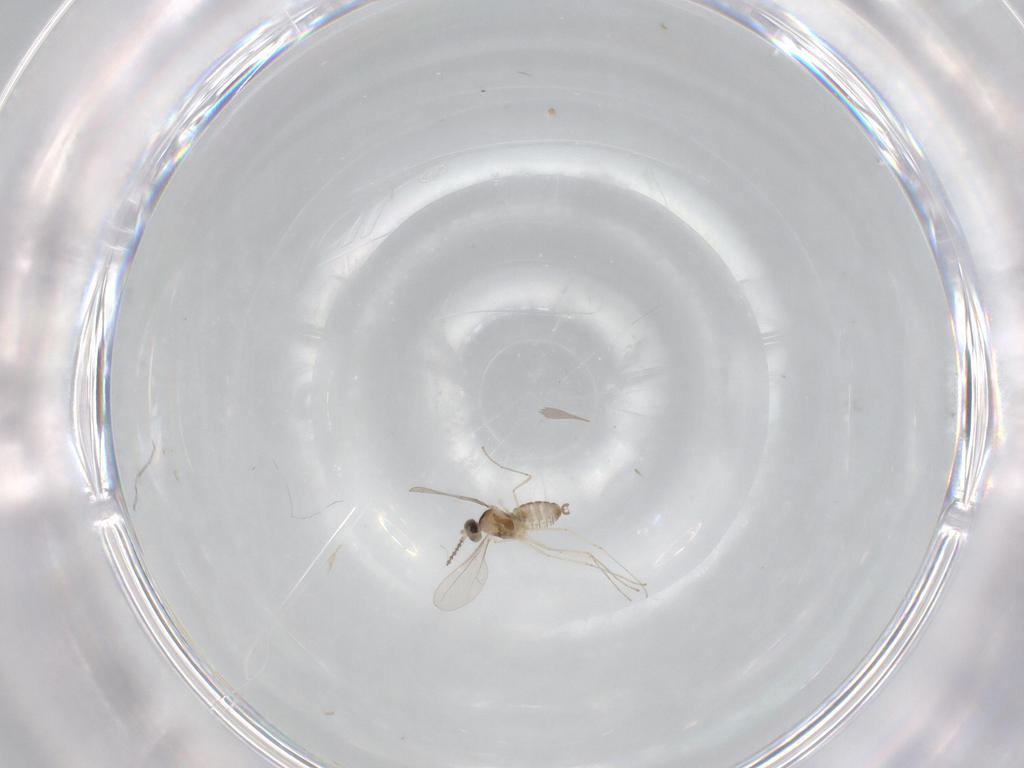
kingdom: Animalia
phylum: Arthropoda
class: Insecta
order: Diptera
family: Cecidomyiidae
